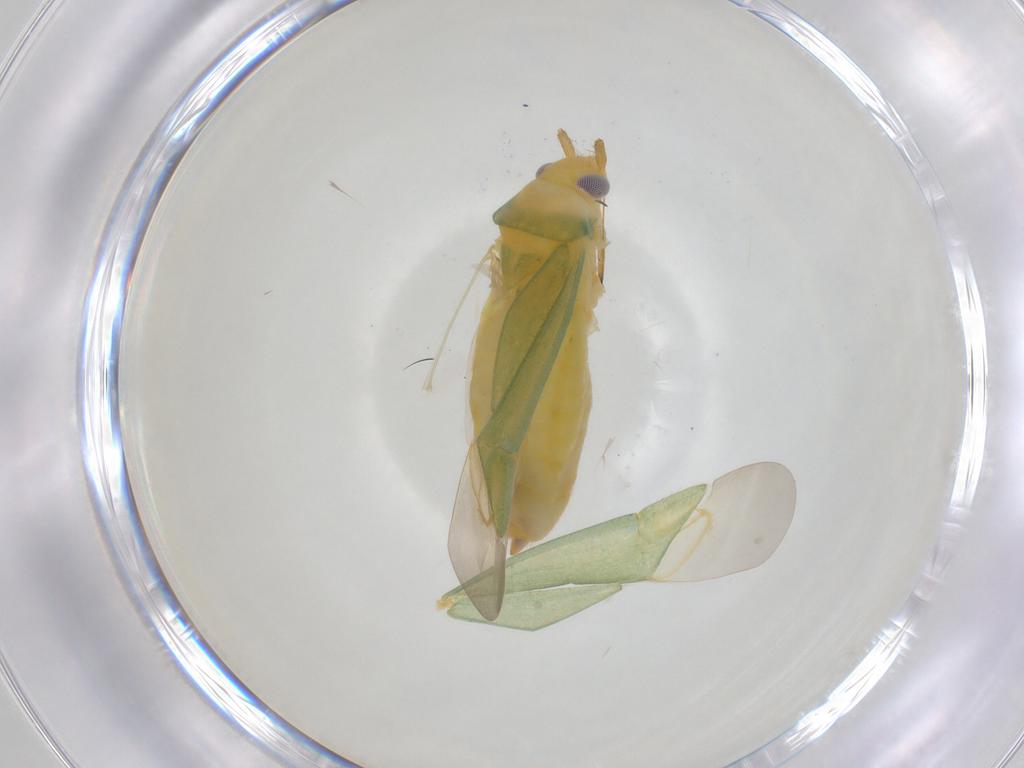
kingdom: Animalia
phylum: Arthropoda
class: Insecta
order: Hemiptera
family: Miridae
